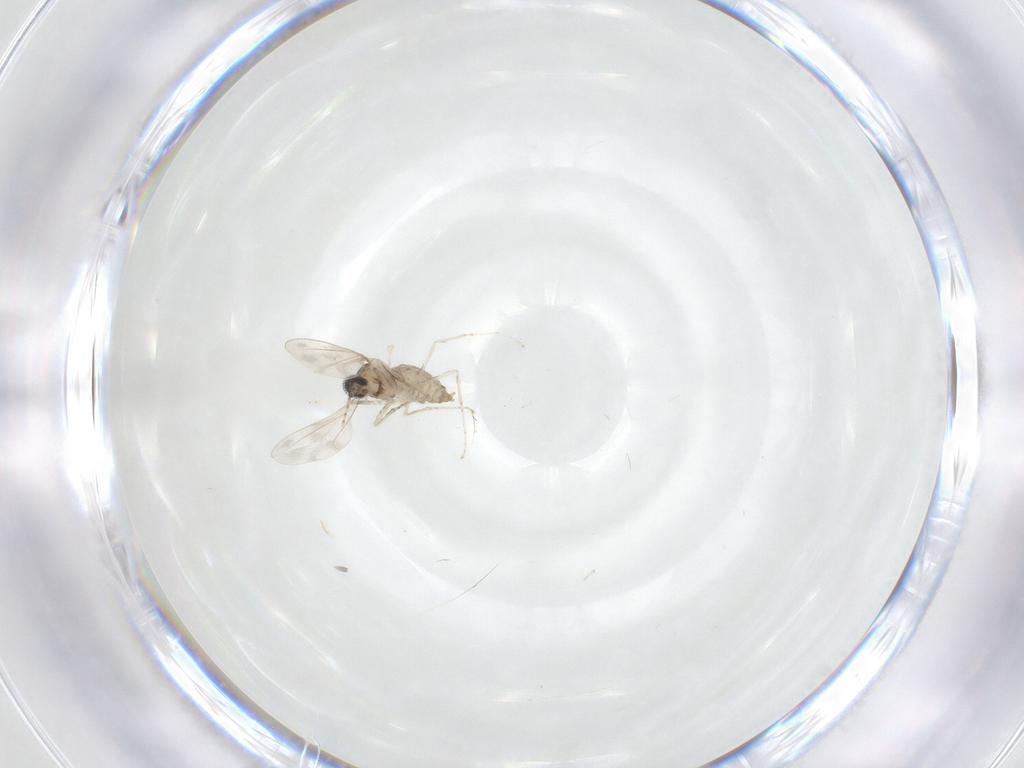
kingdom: Animalia
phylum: Arthropoda
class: Insecta
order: Diptera
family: Cecidomyiidae
